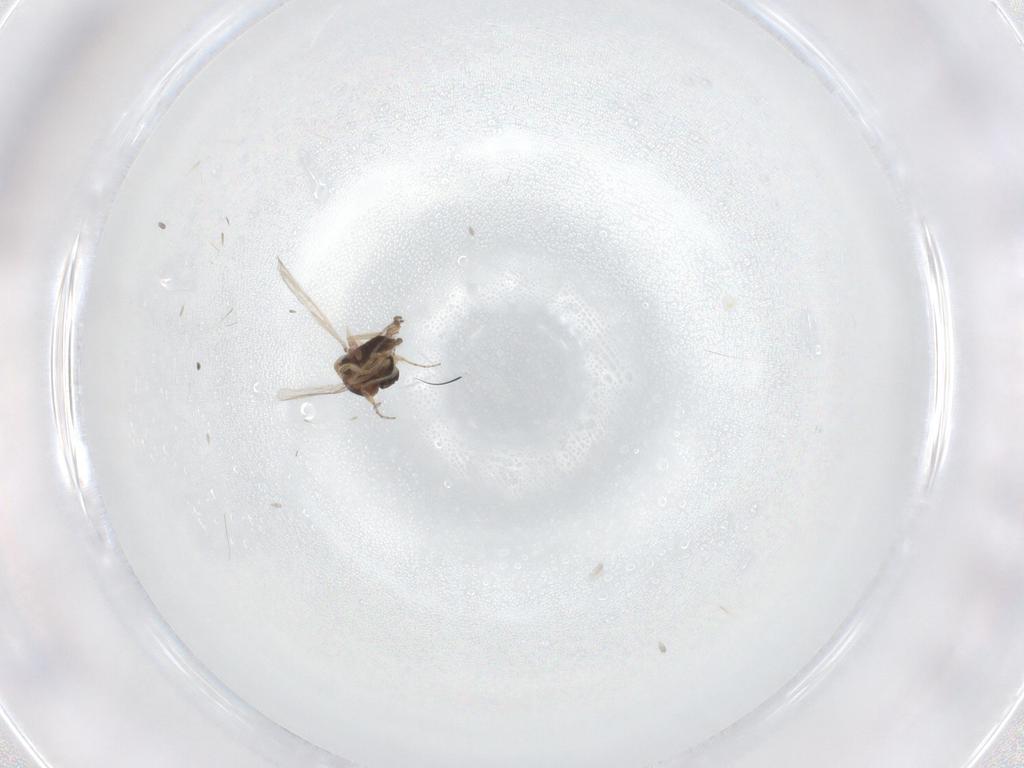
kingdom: Animalia
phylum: Arthropoda
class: Insecta
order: Diptera
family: Ceratopogonidae
